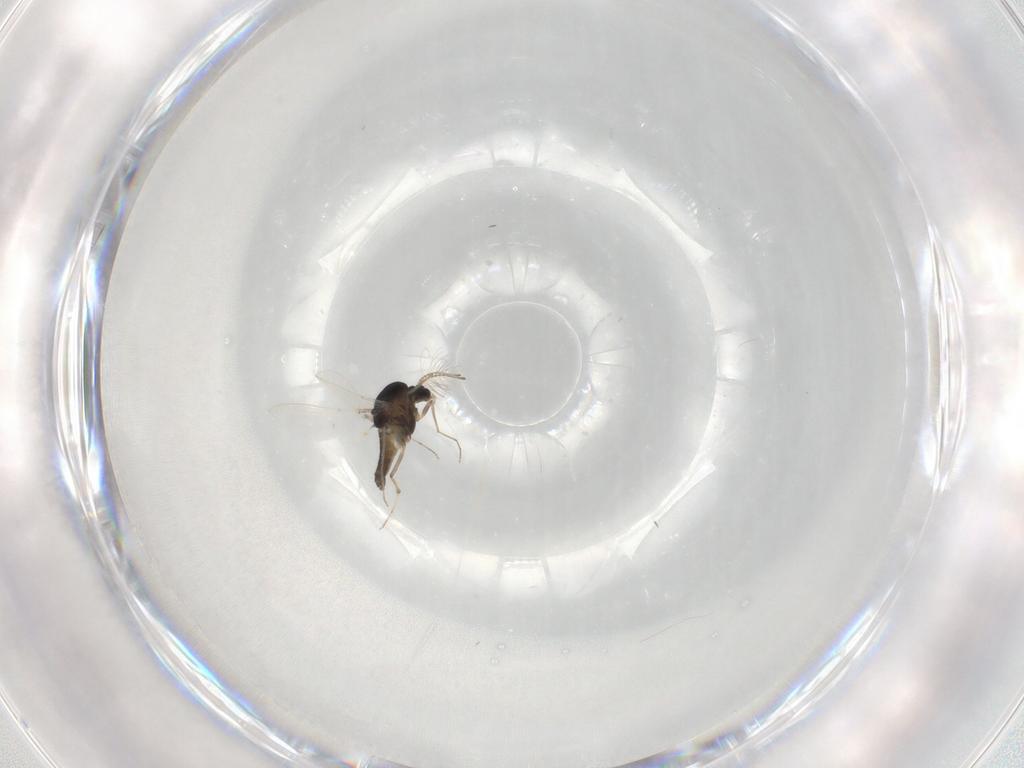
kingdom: Animalia
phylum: Arthropoda
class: Insecta
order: Diptera
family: Chironomidae
